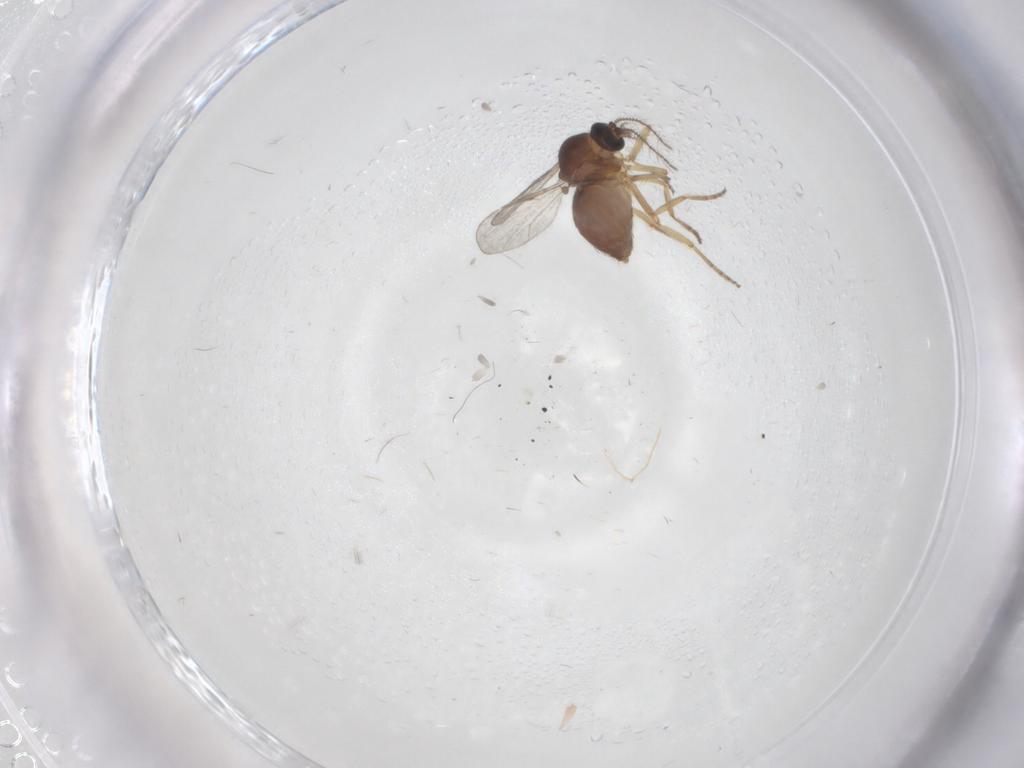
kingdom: Animalia
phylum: Arthropoda
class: Insecta
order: Diptera
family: Ceratopogonidae
